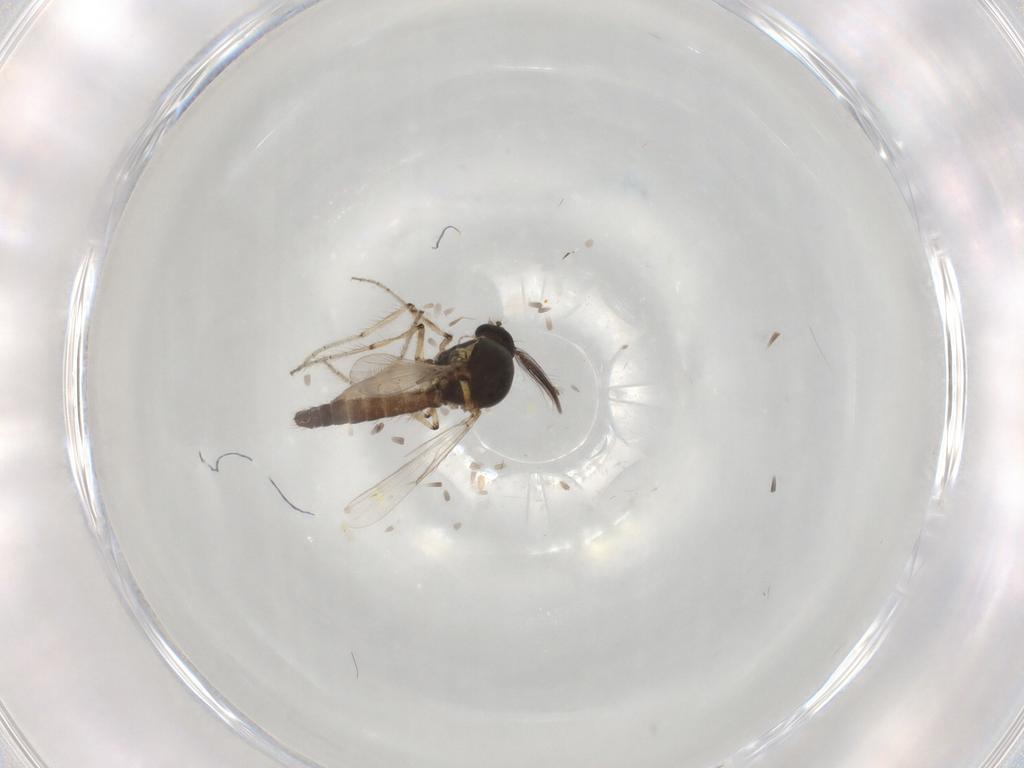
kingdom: Animalia
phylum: Arthropoda
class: Insecta
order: Diptera
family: Ceratopogonidae
